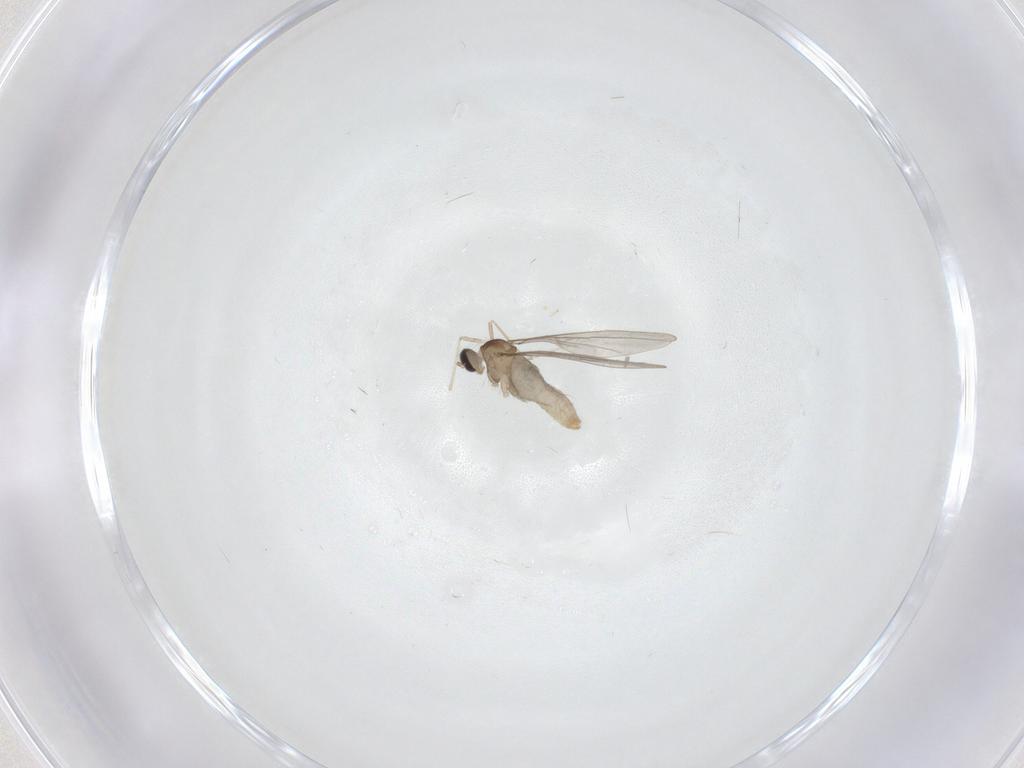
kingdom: Animalia
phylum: Arthropoda
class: Insecta
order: Diptera
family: Cecidomyiidae
